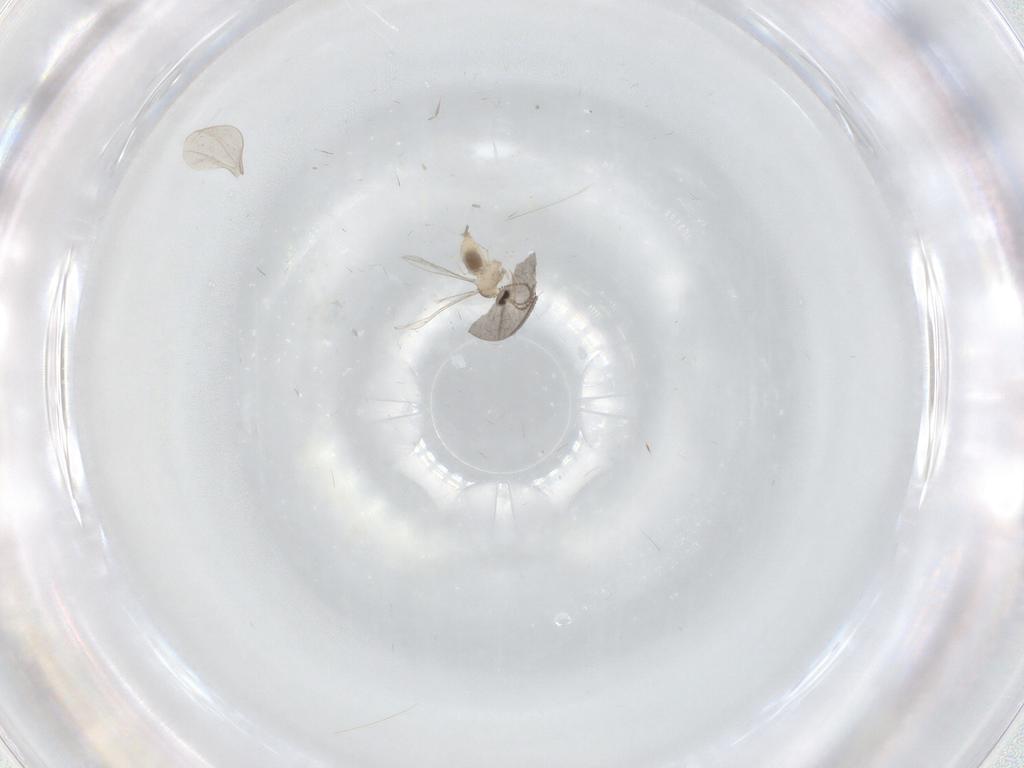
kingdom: Animalia
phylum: Arthropoda
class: Insecta
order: Diptera
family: Cecidomyiidae
